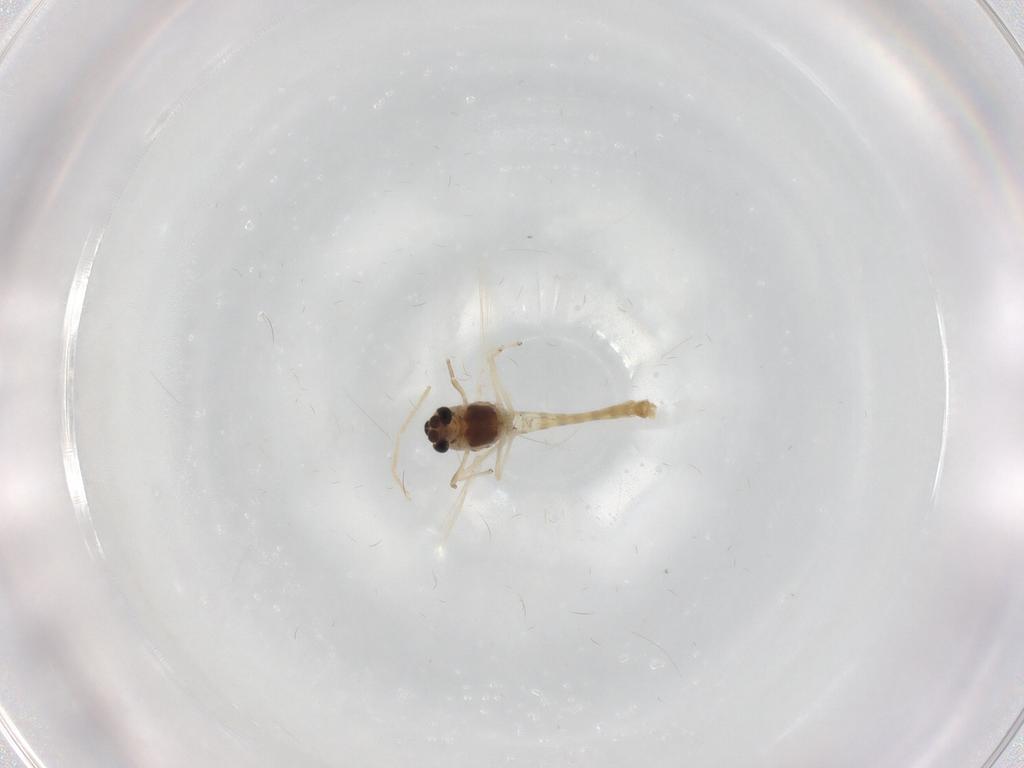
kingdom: Animalia
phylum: Arthropoda
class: Insecta
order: Diptera
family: Chironomidae
